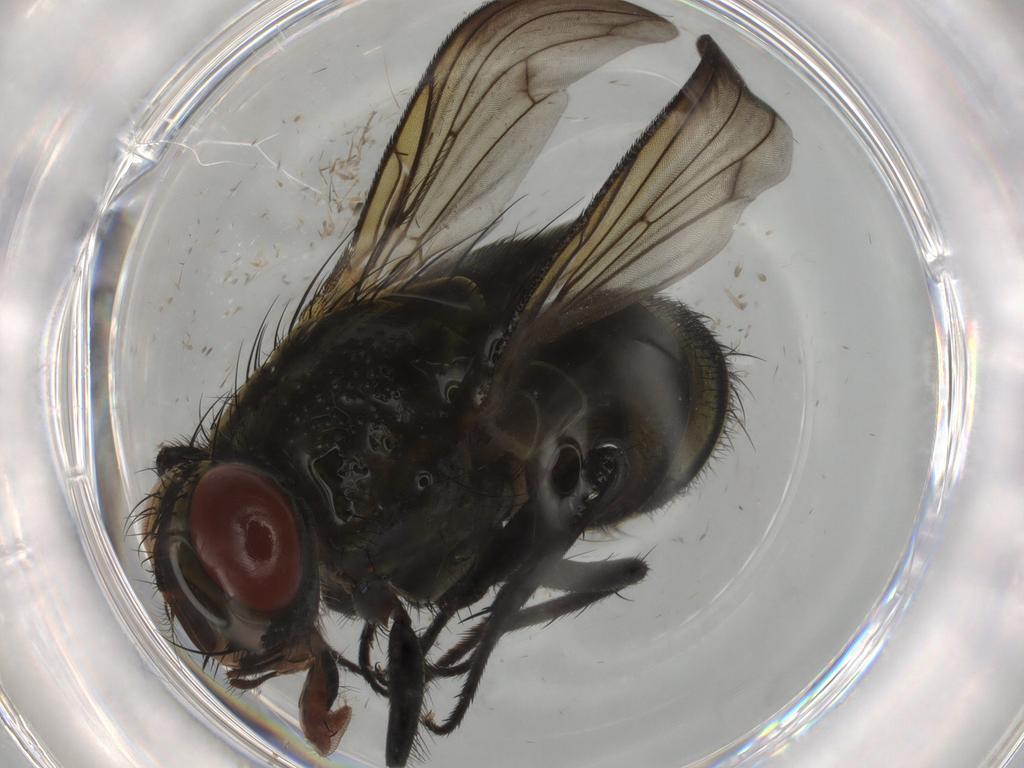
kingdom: Animalia
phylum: Arthropoda
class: Insecta
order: Diptera
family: Sarcophagidae
